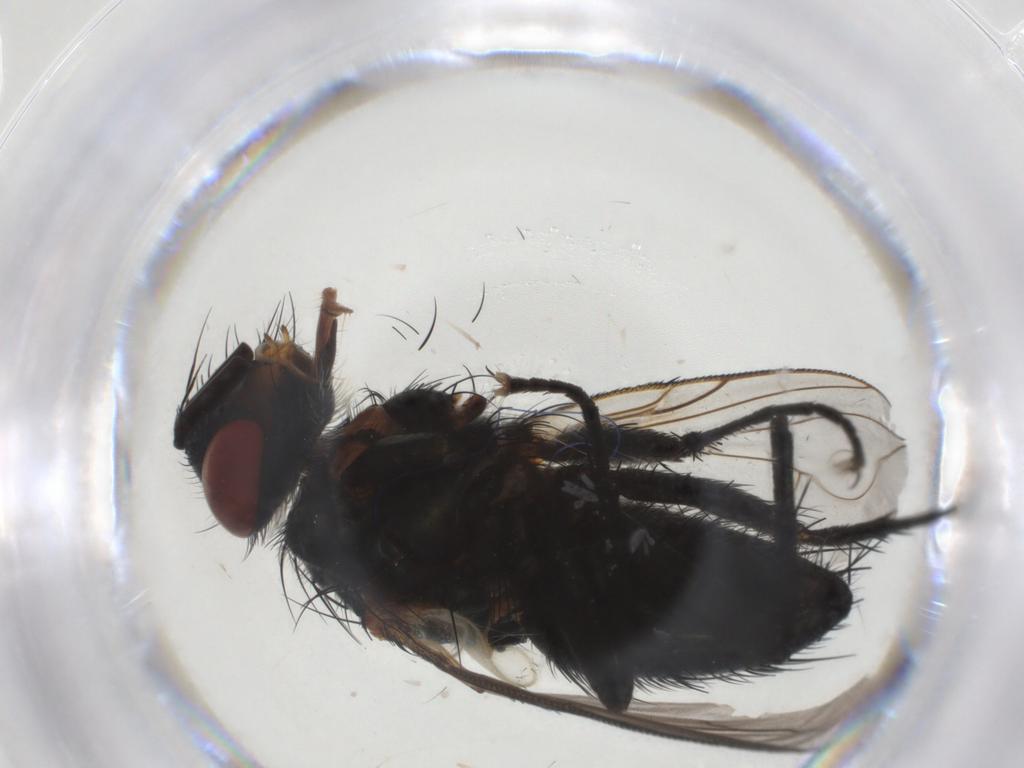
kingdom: Animalia
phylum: Arthropoda
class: Insecta
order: Diptera
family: Tachinidae
